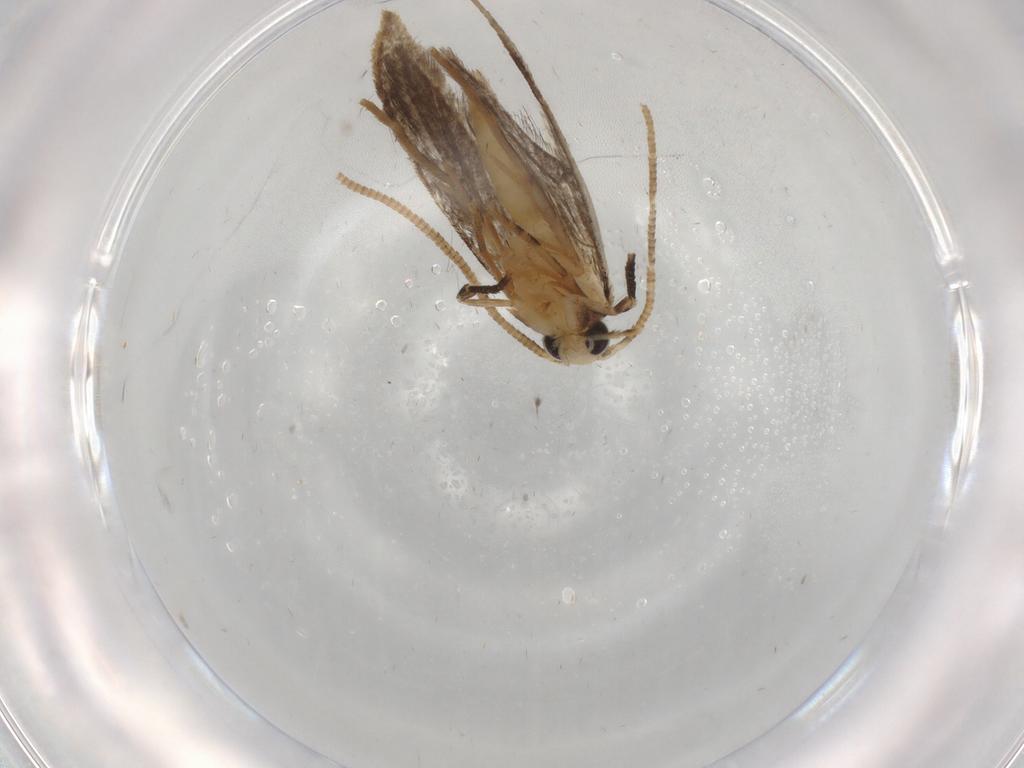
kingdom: Animalia
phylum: Arthropoda
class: Insecta
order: Lepidoptera
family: Tineidae
